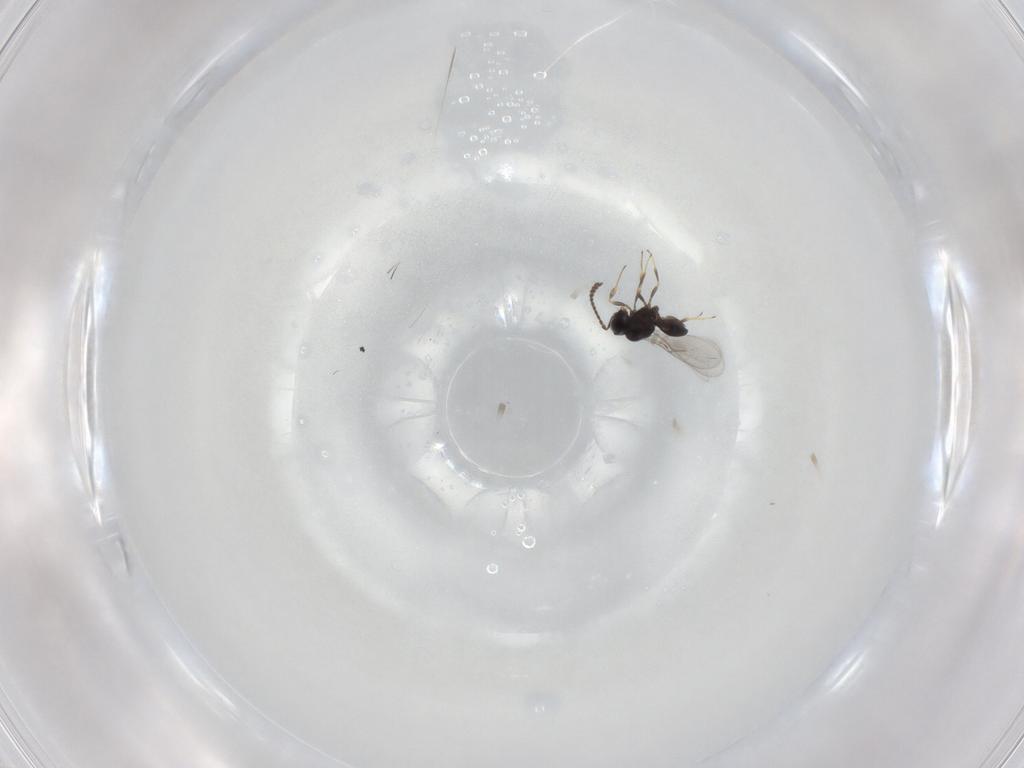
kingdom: Animalia
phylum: Arthropoda
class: Insecta
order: Hymenoptera
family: Scelionidae
